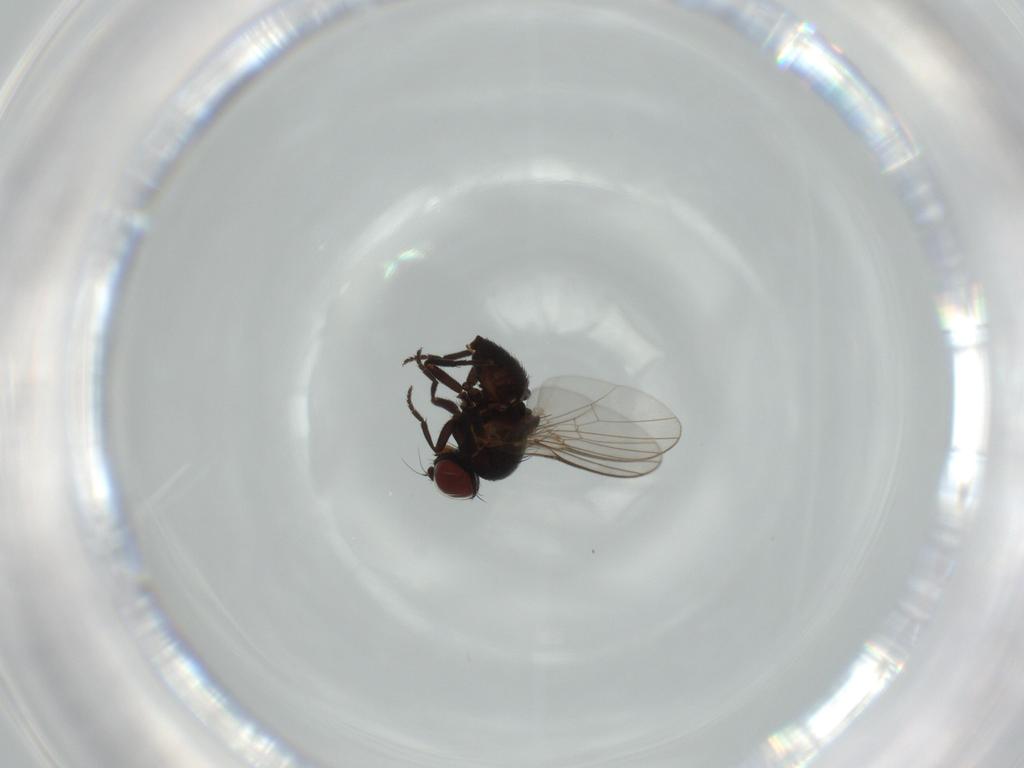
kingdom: Animalia
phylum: Arthropoda
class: Insecta
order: Diptera
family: Agromyzidae
